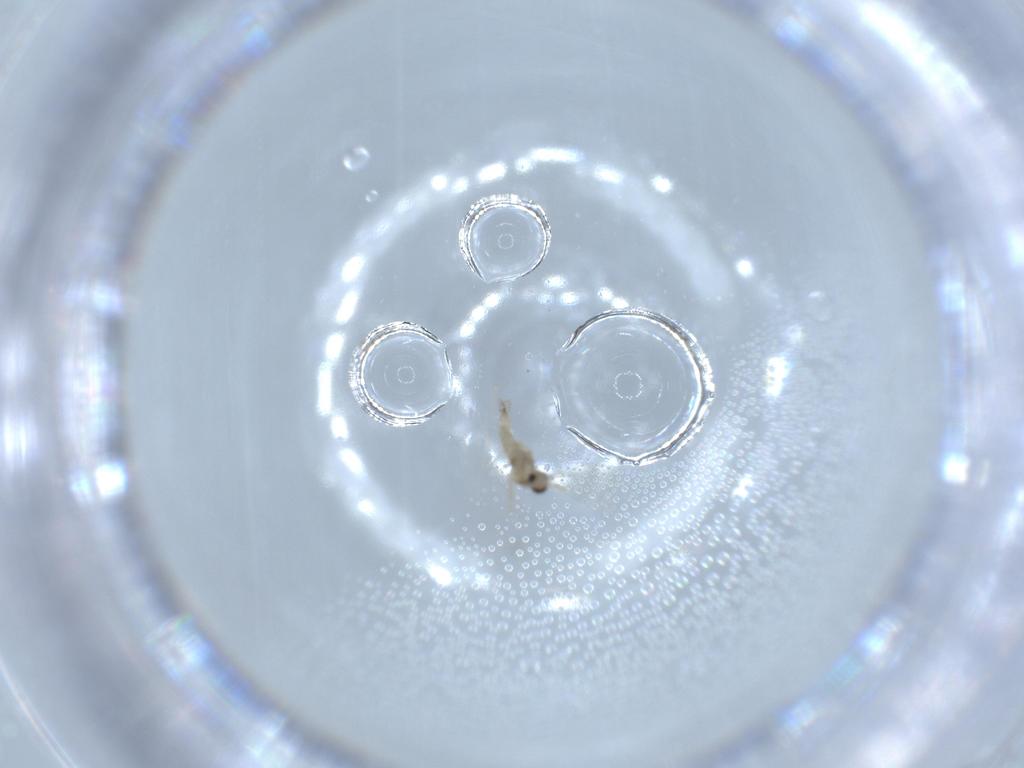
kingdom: Animalia
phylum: Arthropoda
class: Insecta
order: Diptera
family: Cecidomyiidae
